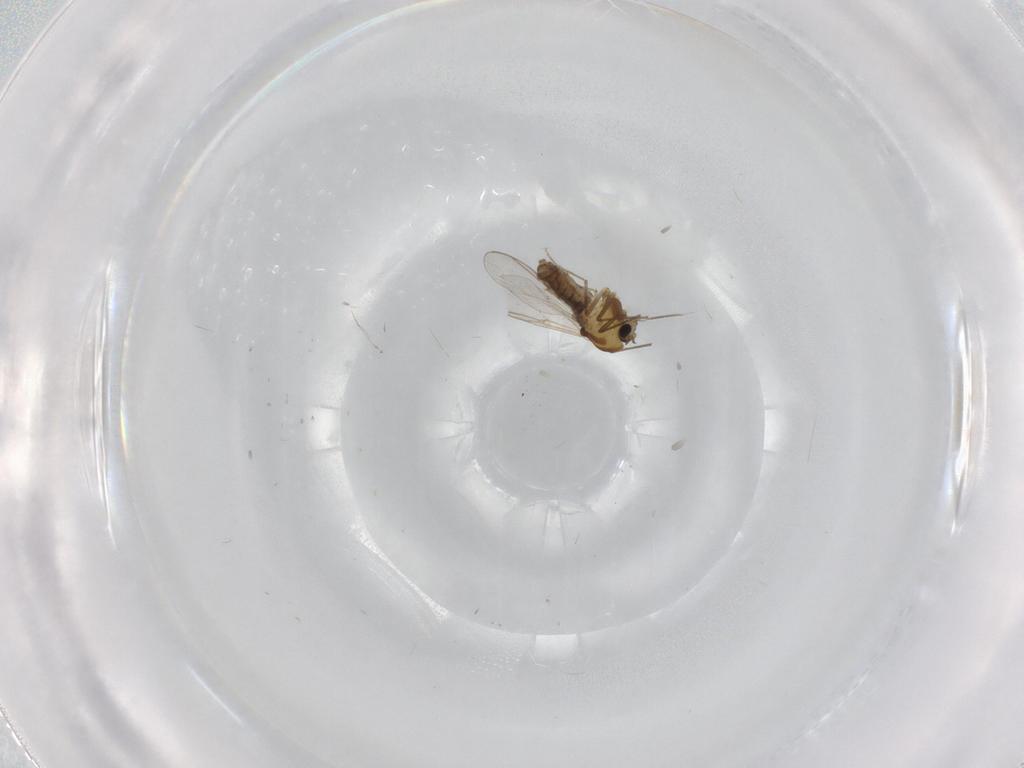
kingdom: Animalia
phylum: Arthropoda
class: Insecta
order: Diptera
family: Chironomidae
